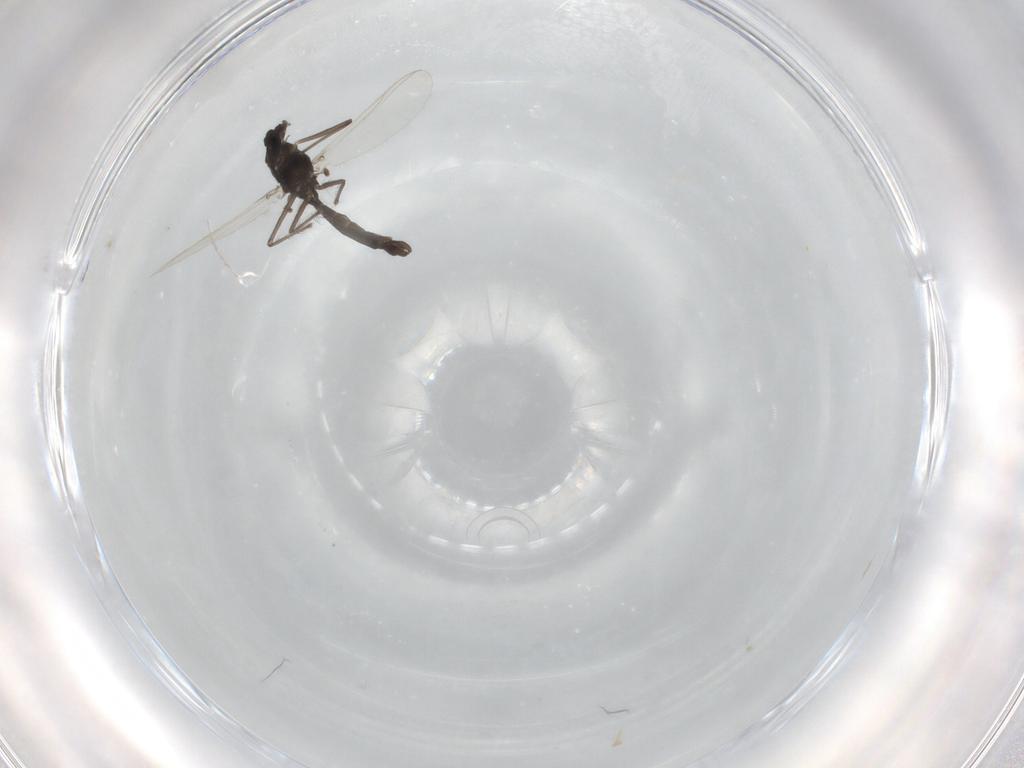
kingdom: Animalia
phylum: Arthropoda
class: Insecta
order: Diptera
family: Chironomidae
